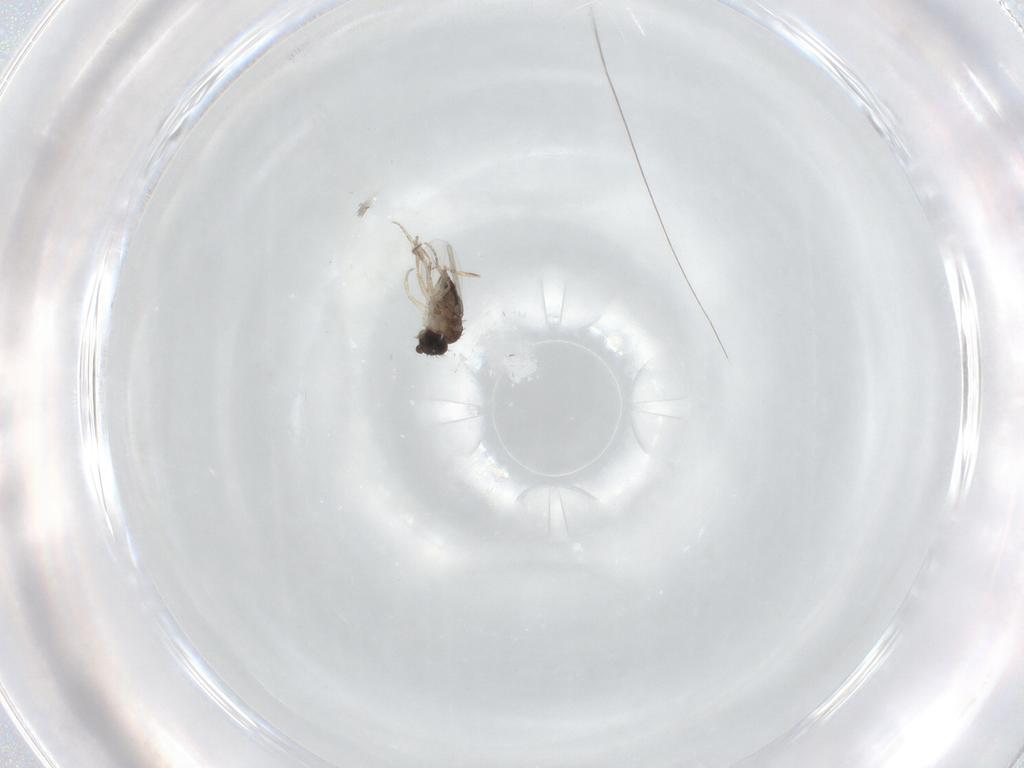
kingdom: Animalia
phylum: Arthropoda
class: Insecta
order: Diptera
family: Phoridae
